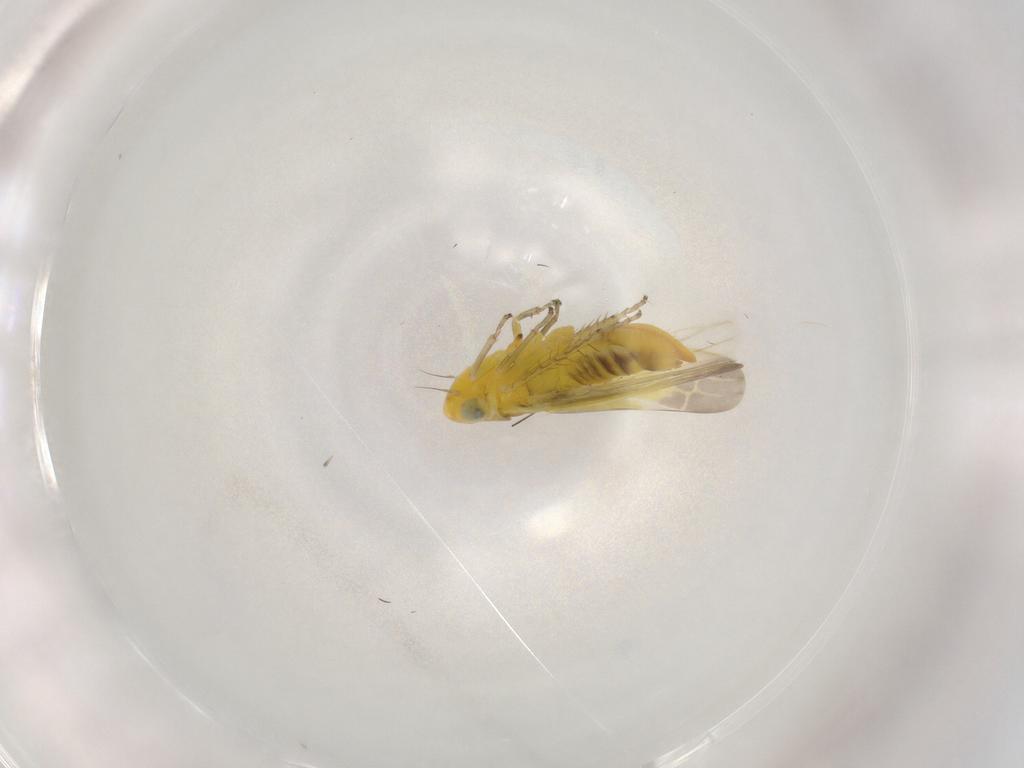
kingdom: Animalia
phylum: Arthropoda
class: Insecta
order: Hemiptera
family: Cicadellidae
